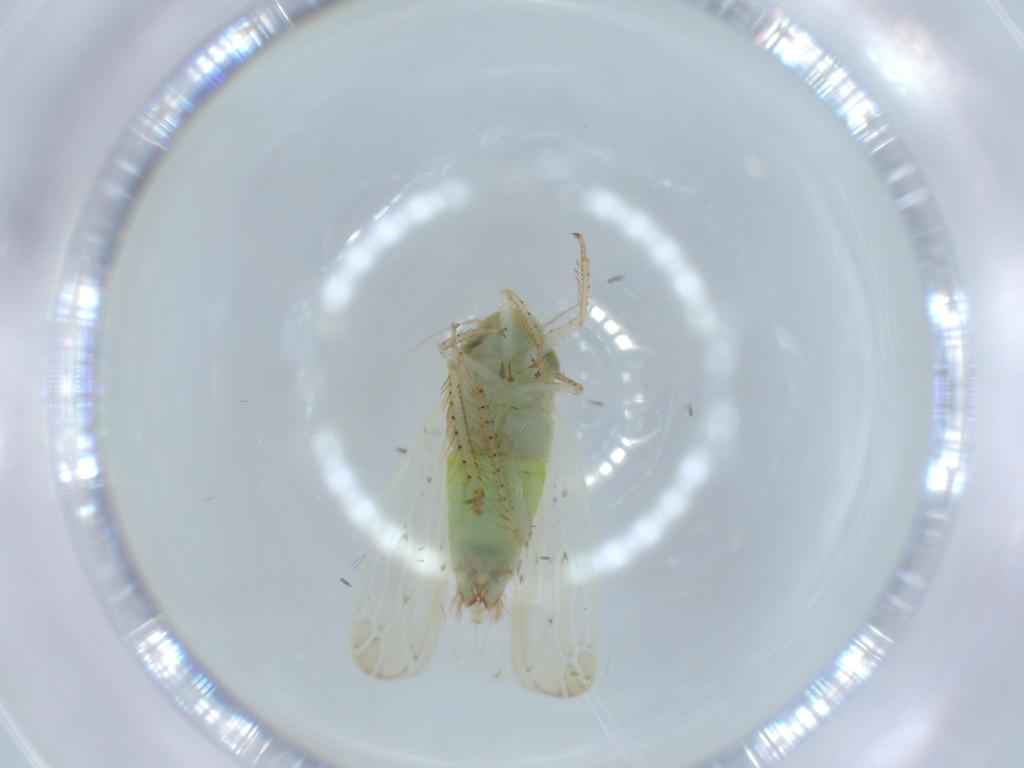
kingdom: Animalia
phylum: Arthropoda
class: Insecta
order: Hemiptera
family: Cicadellidae
